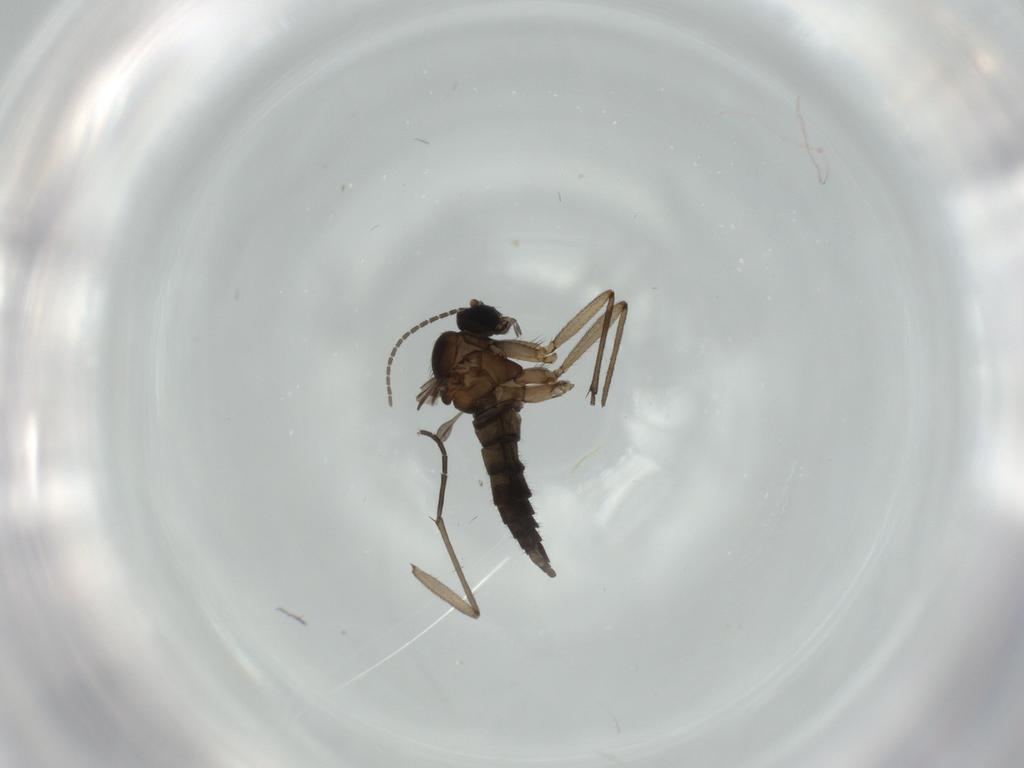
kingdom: Animalia
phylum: Arthropoda
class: Insecta
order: Diptera
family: Sciaridae
